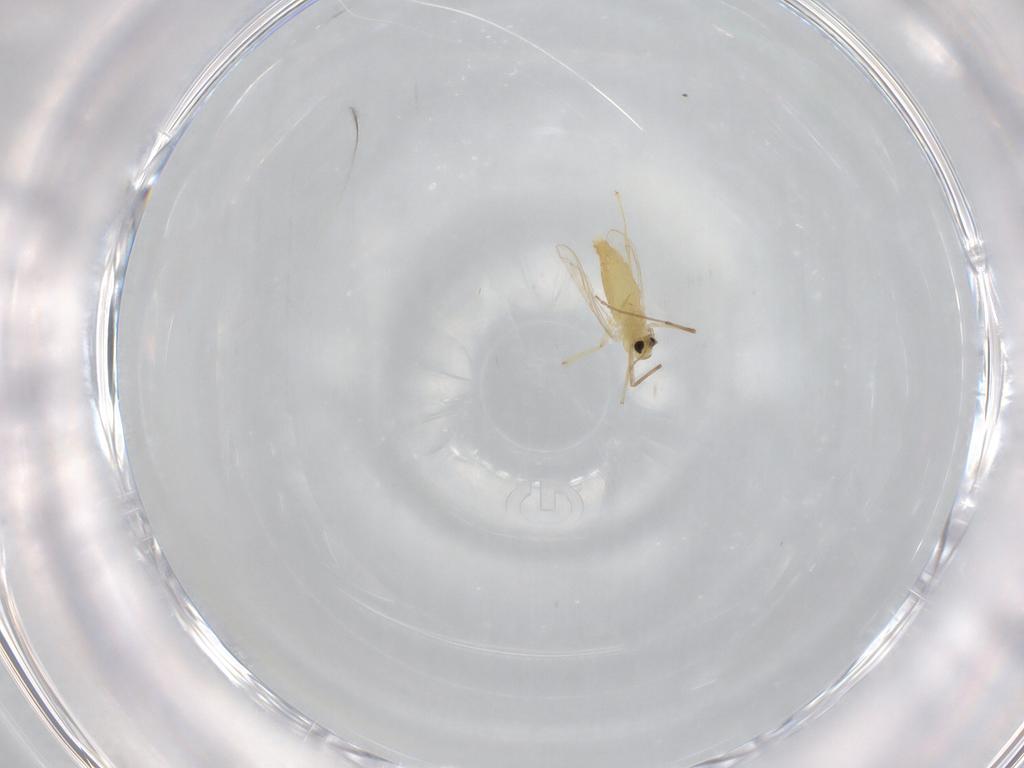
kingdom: Animalia
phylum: Arthropoda
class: Insecta
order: Diptera
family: Chironomidae
